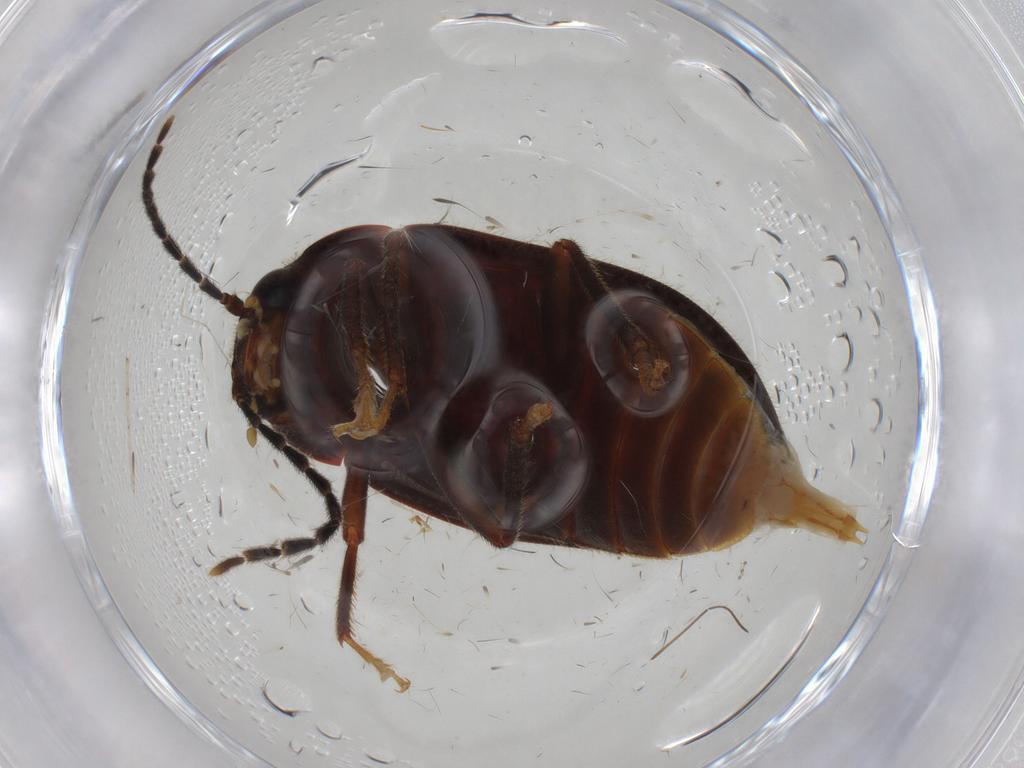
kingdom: Animalia
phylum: Arthropoda
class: Insecta
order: Coleoptera
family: Ptilodactylidae
